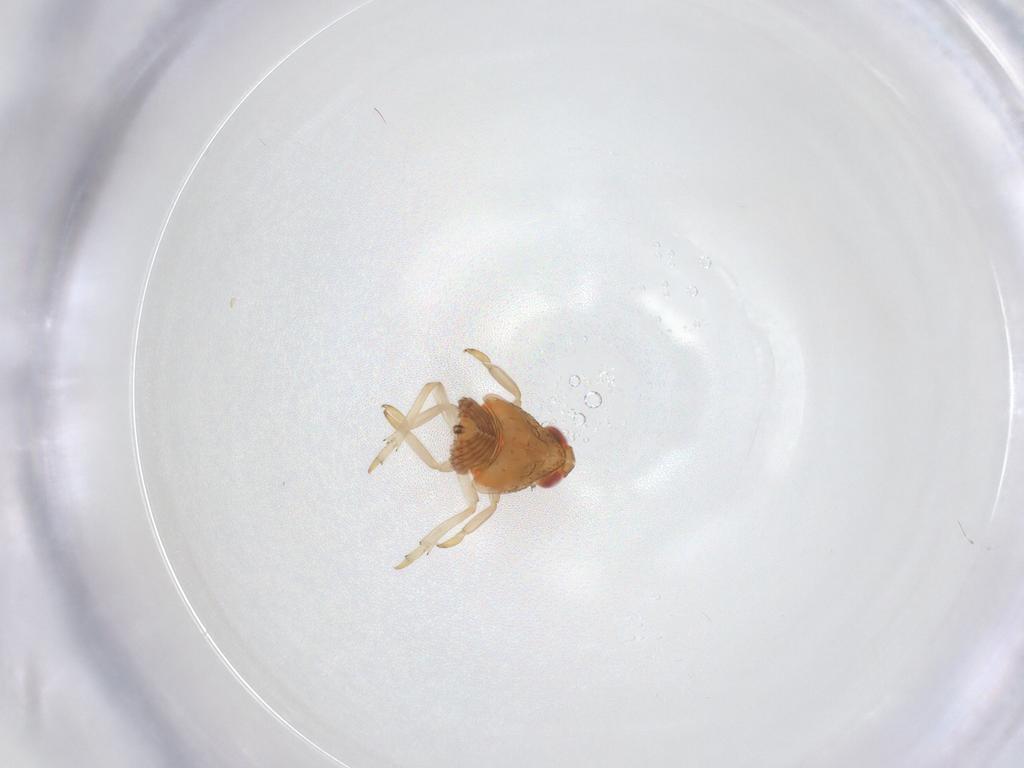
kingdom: Animalia
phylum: Arthropoda
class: Insecta
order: Hemiptera
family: Fulgoroidea_incertae_sedis
